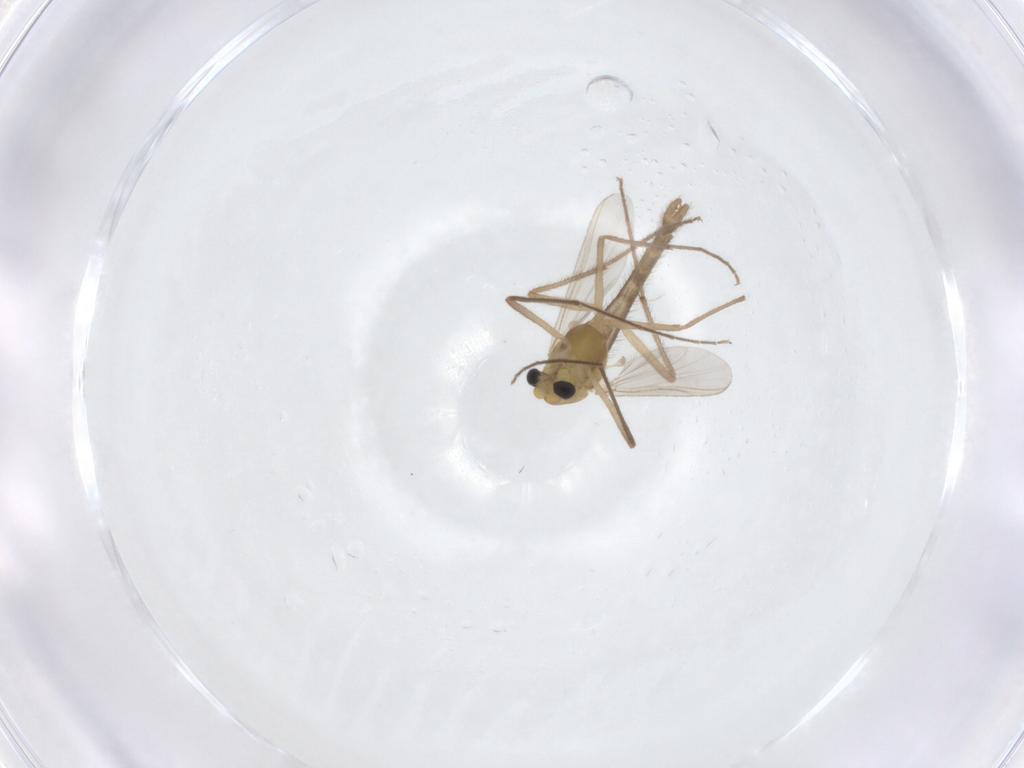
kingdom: Animalia
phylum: Arthropoda
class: Insecta
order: Diptera
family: Chironomidae
